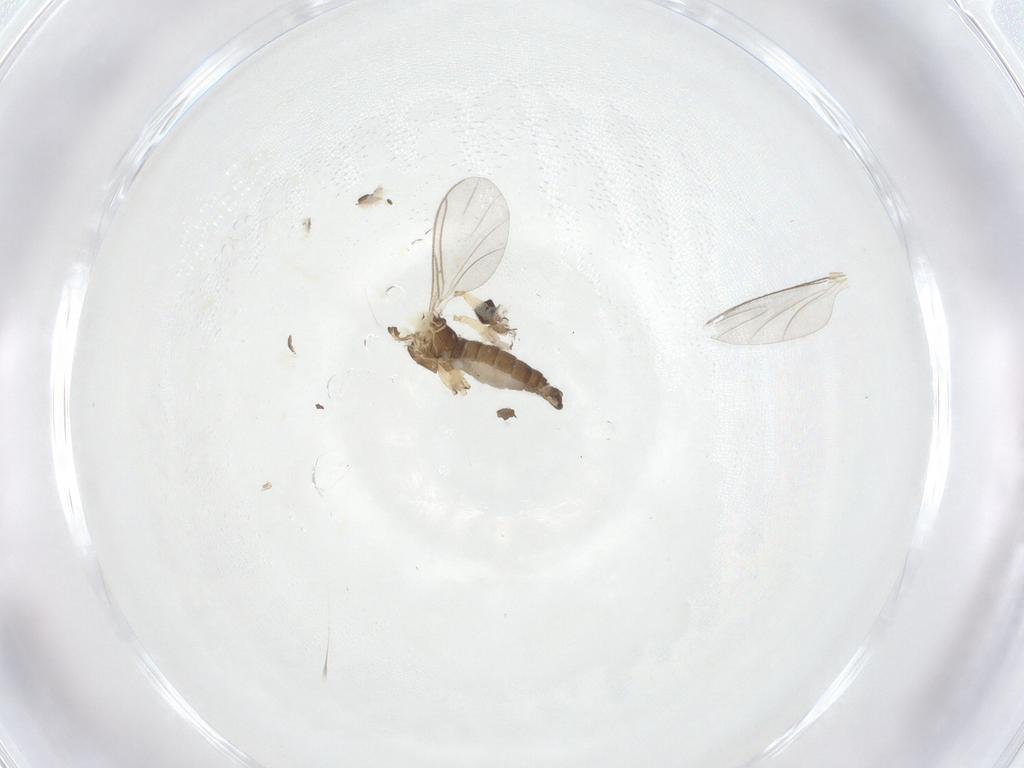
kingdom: Animalia
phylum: Arthropoda
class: Insecta
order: Diptera
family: Sciaridae
